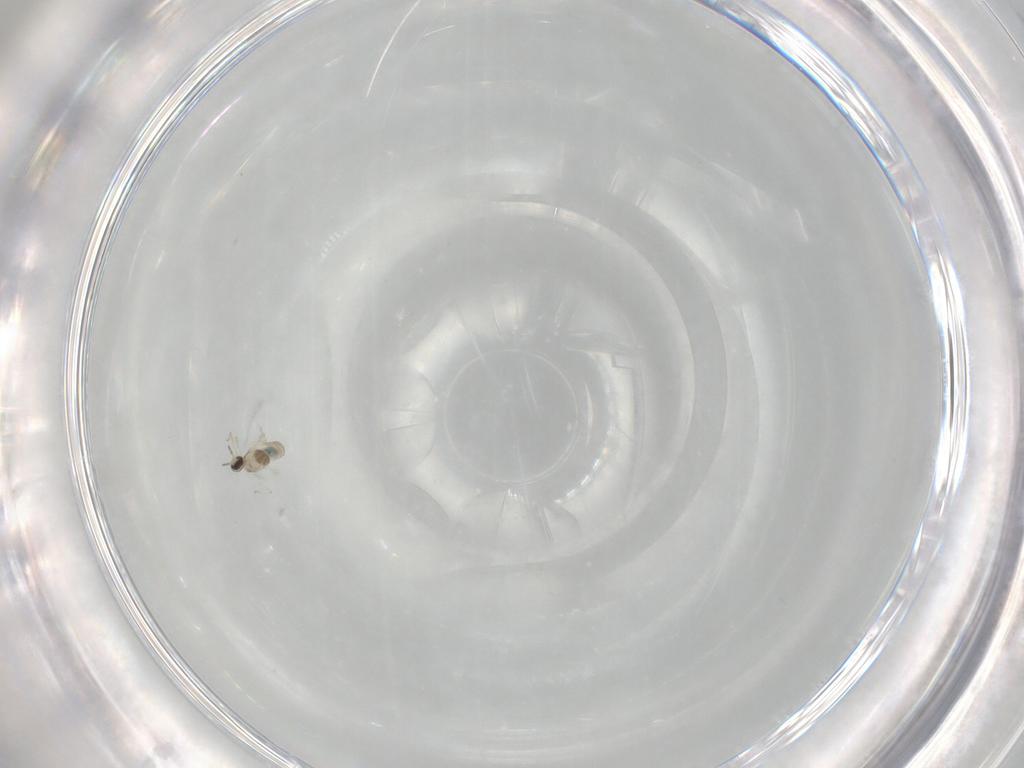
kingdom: Animalia
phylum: Arthropoda
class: Insecta
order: Diptera
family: Cecidomyiidae
